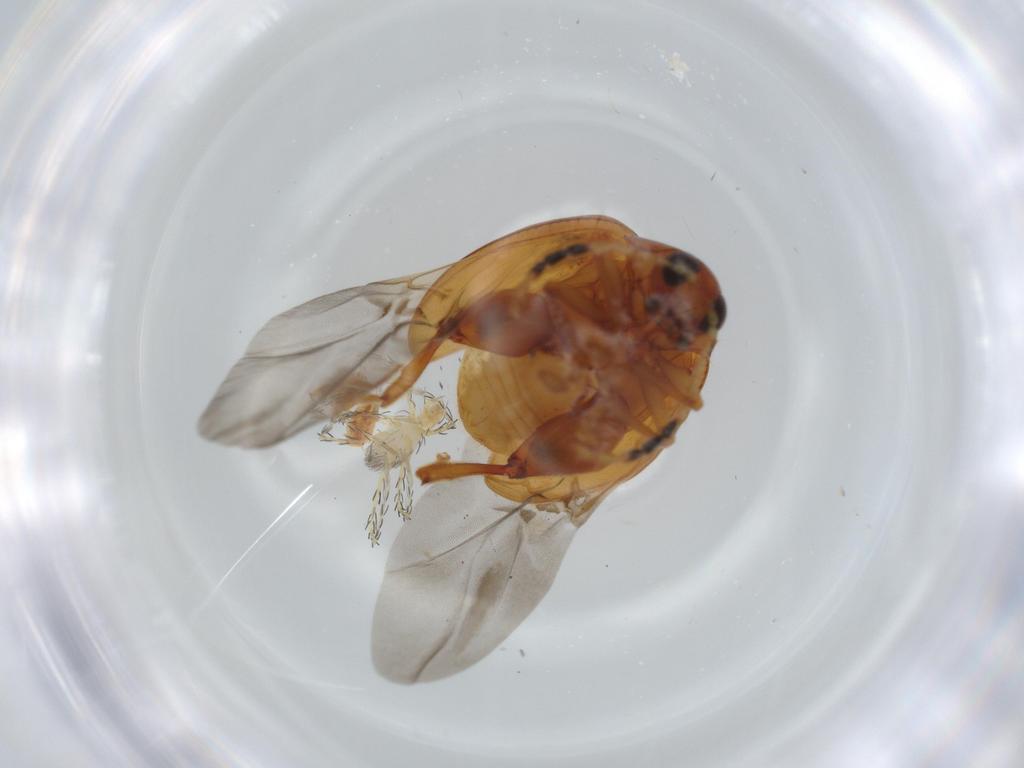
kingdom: Animalia
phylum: Arthropoda
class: Insecta
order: Coleoptera
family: Chrysomelidae
